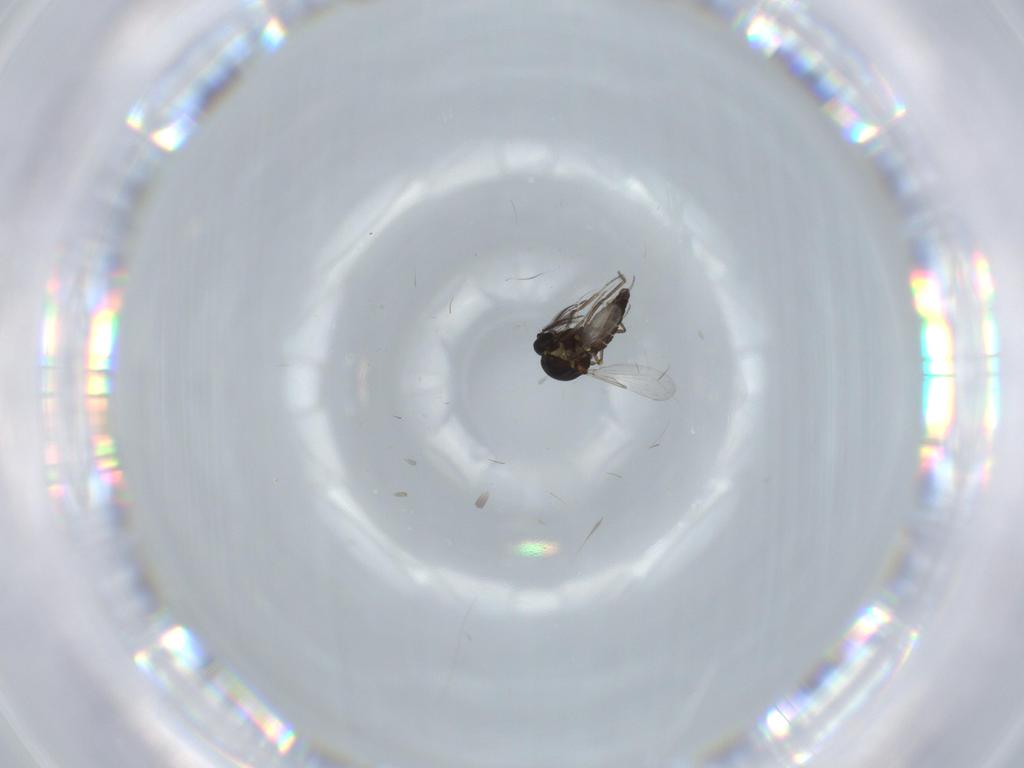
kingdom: Animalia
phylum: Arthropoda
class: Insecta
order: Diptera
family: Ceratopogonidae
